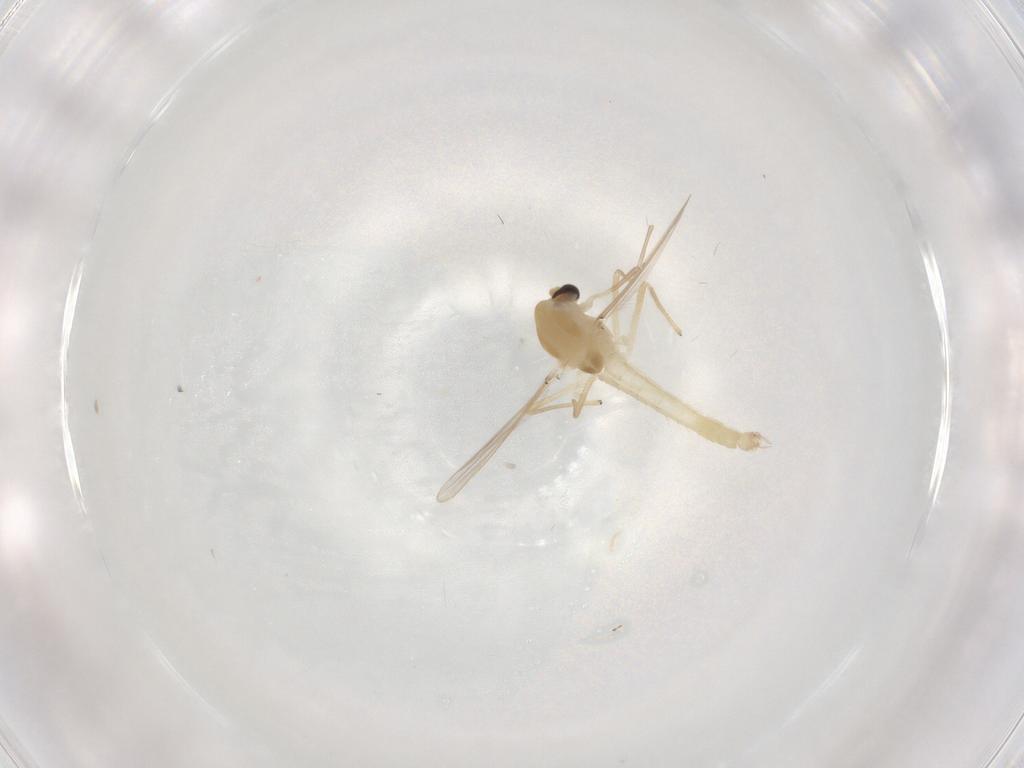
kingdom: Animalia
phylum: Arthropoda
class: Insecta
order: Diptera
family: Chironomidae
